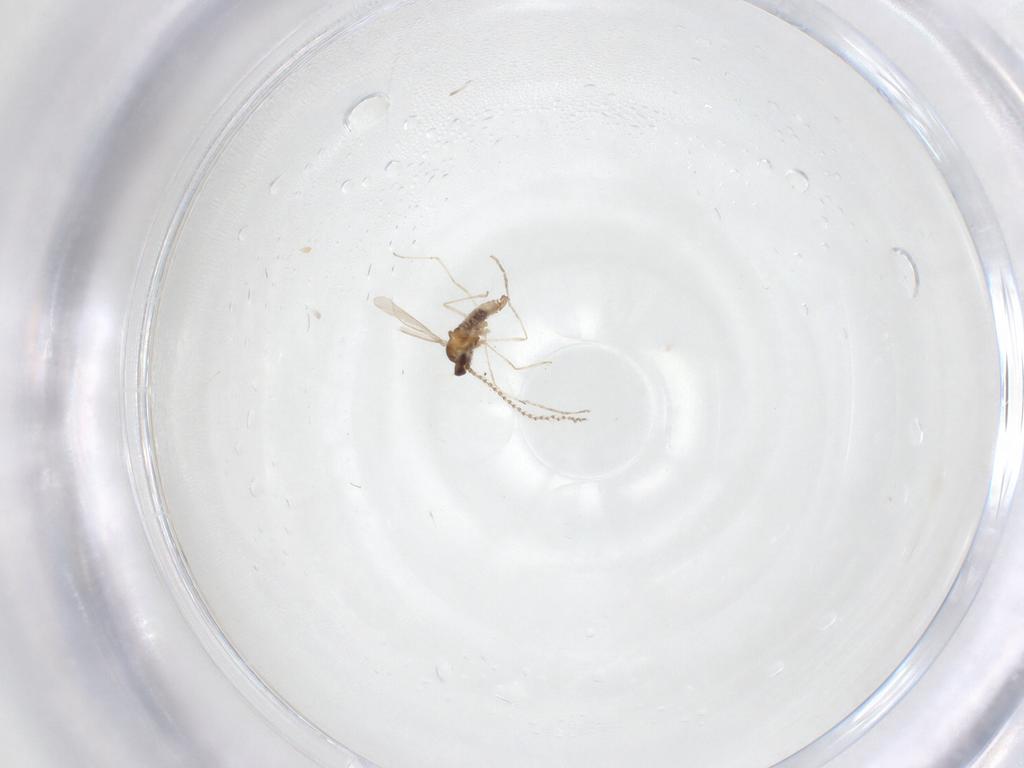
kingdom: Animalia
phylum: Arthropoda
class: Insecta
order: Diptera
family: Cecidomyiidae
